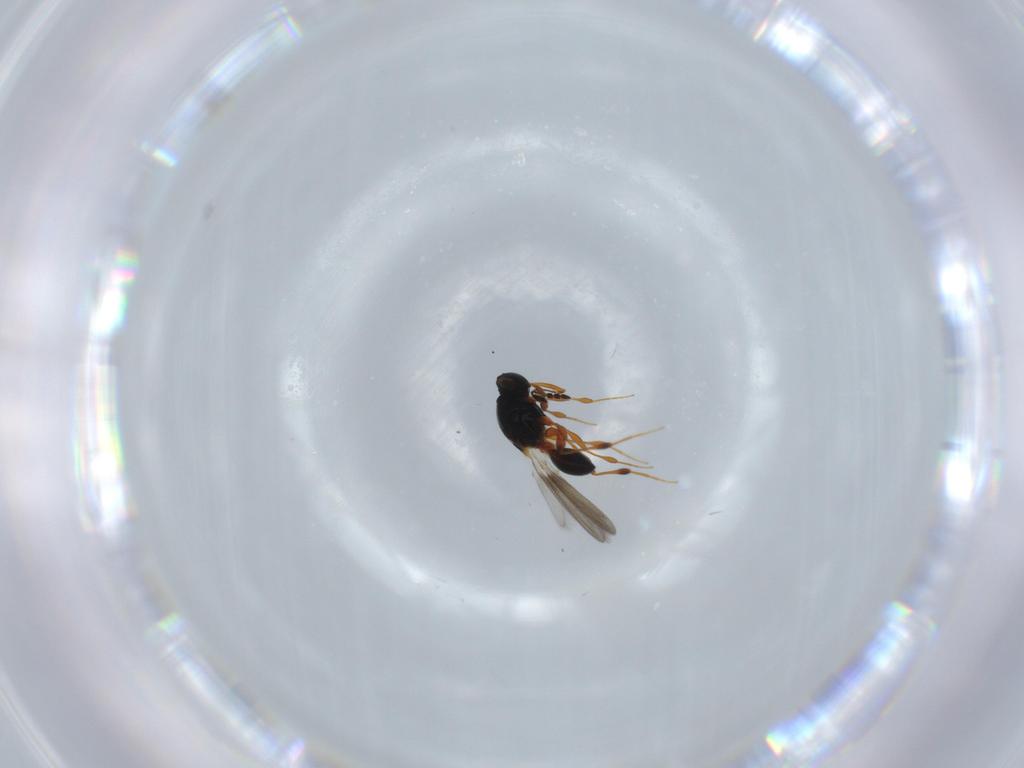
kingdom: Animalia
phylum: Arthropoda
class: Insecta
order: Hymenoptera
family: Platygastridae
